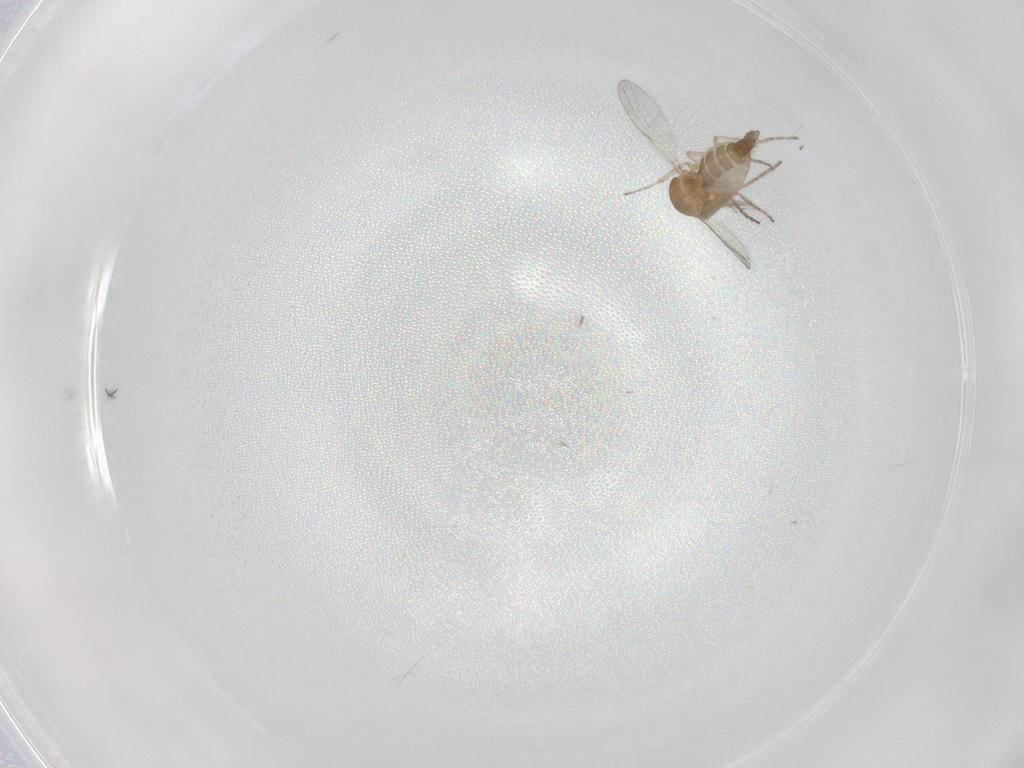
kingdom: Animalia
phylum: Arthropoda
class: Insecta
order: Diptera
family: Ceratopogonidae
